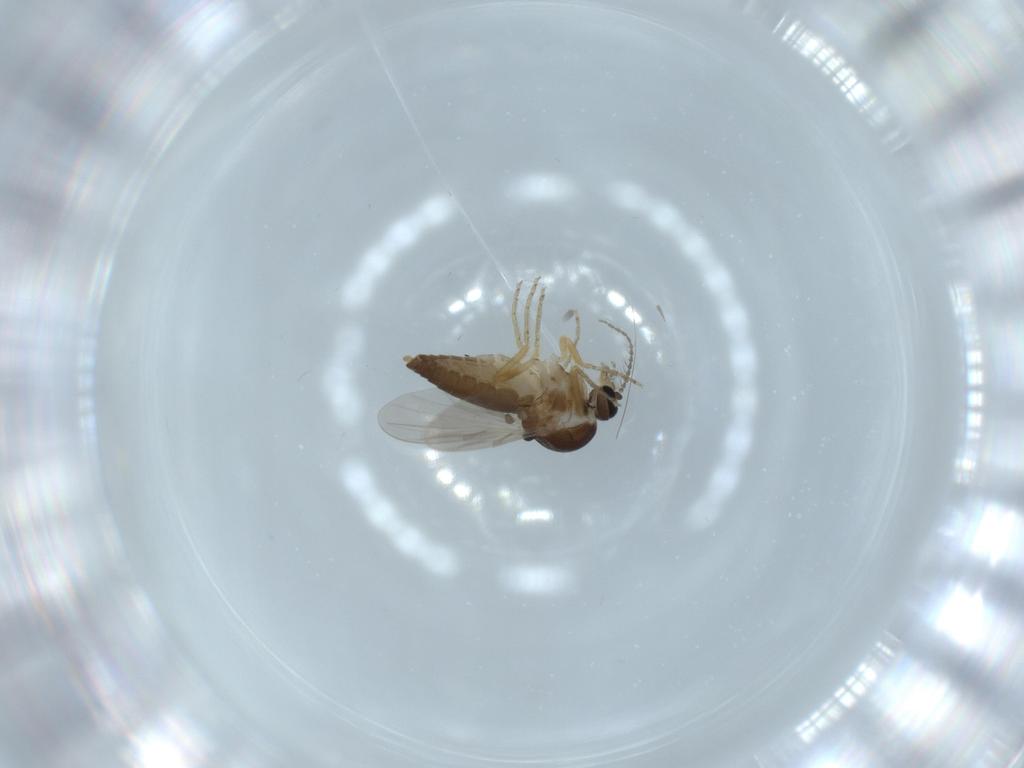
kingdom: Animalia
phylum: Arthropoda
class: Insecta
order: Diptera
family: Ceratopogonidae
